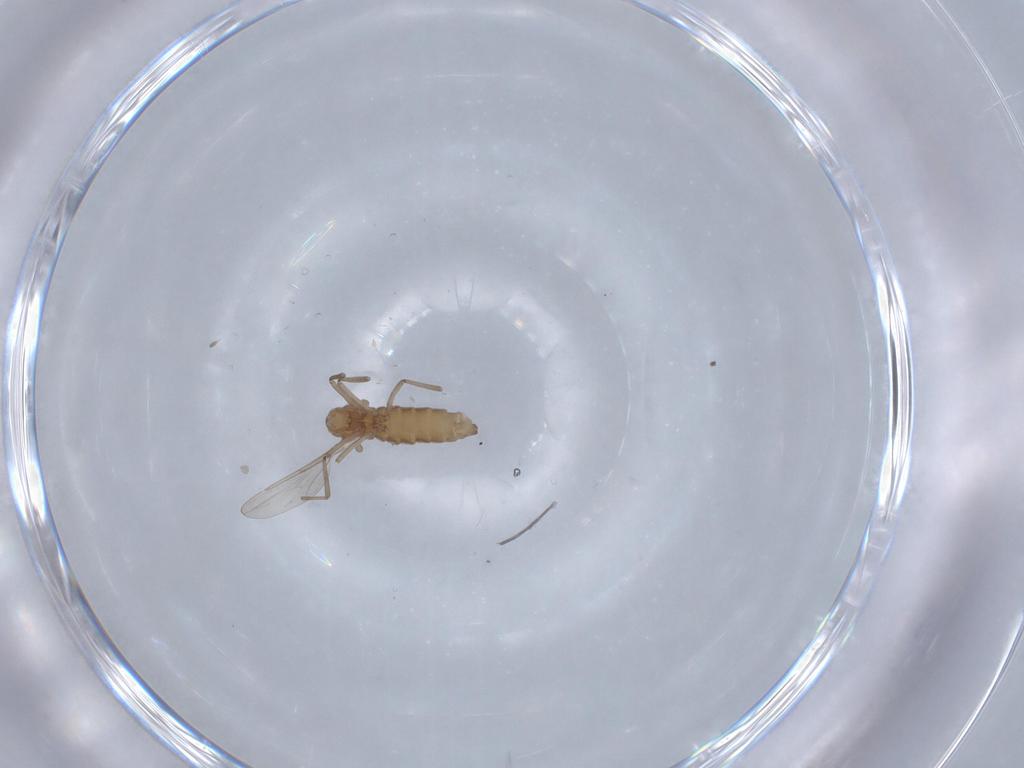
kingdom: Animalia
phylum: Arthropoda
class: Insecta
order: Diptera
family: Cecidomyiidae
